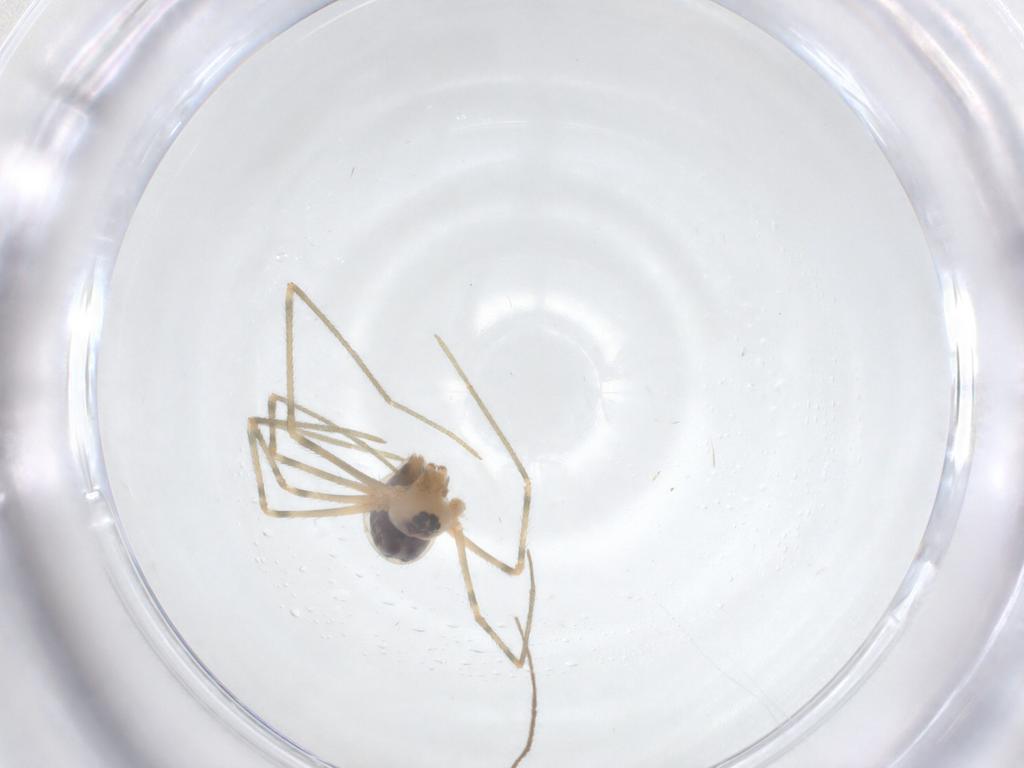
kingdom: Animalia
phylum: Arthropoda
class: Arachnida
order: Araneae
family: Pholcidae
